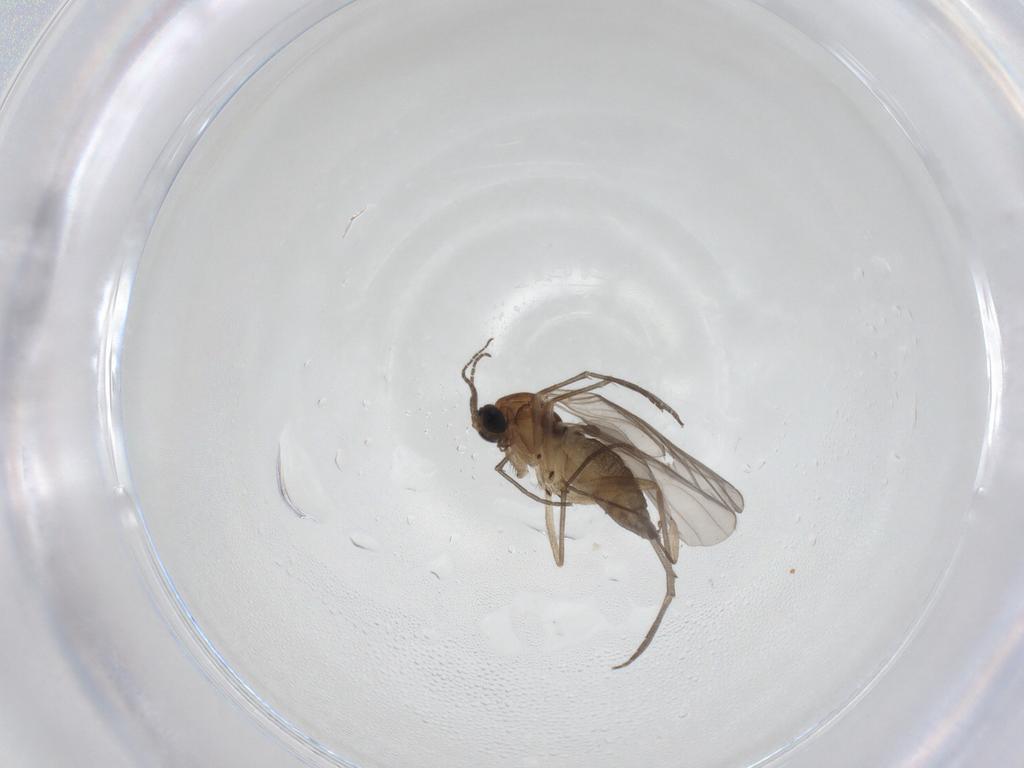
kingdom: Animalia
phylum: Arthropoda
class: Insecta
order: Diptera
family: Sciaridae
